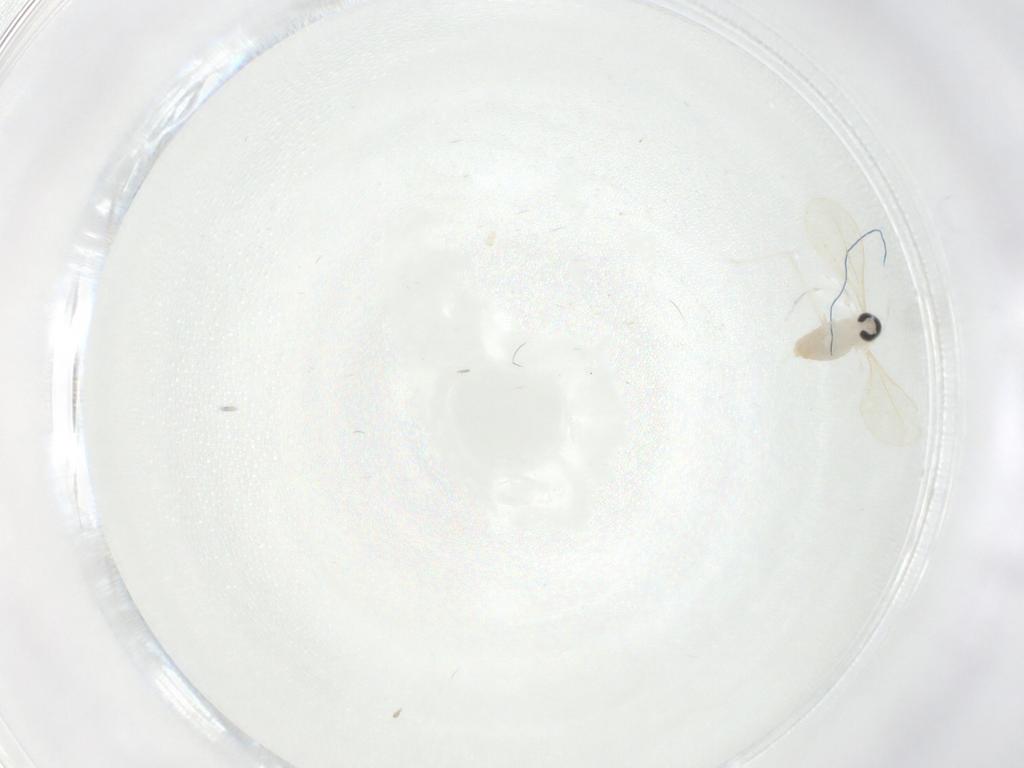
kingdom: Animalia
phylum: Arthropoda
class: Insecta
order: Diptera
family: Cecidomyiidae
